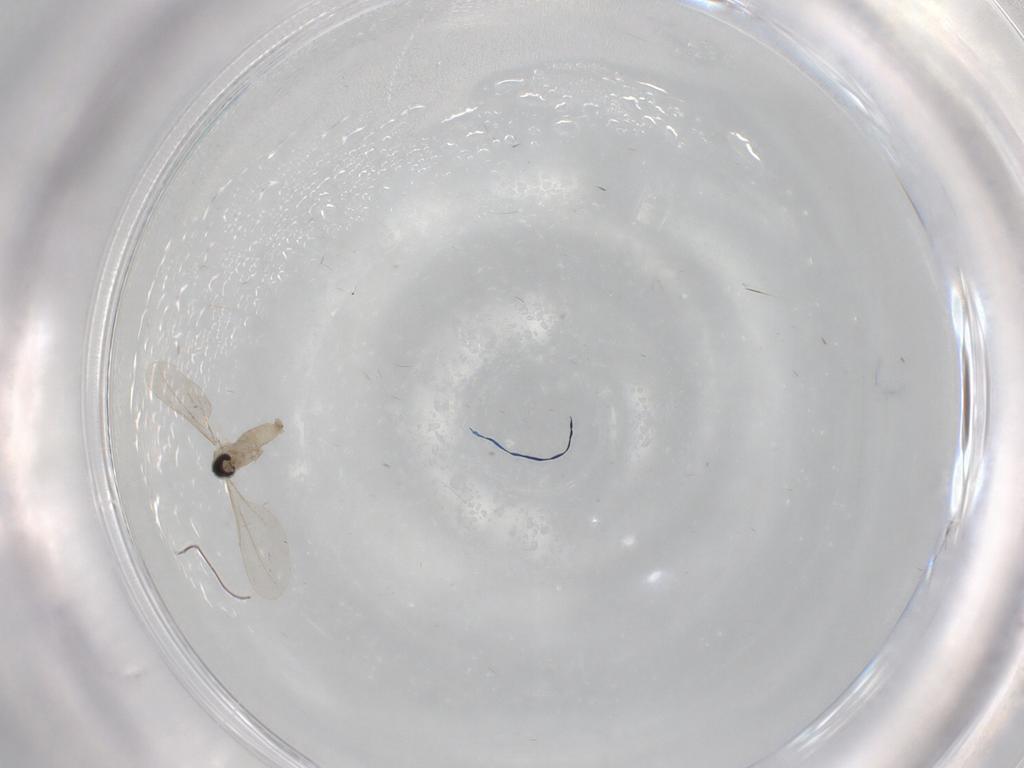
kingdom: Animalia
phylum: Arthropoda
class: Insecta
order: Diptera
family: Cecidomyiidae
